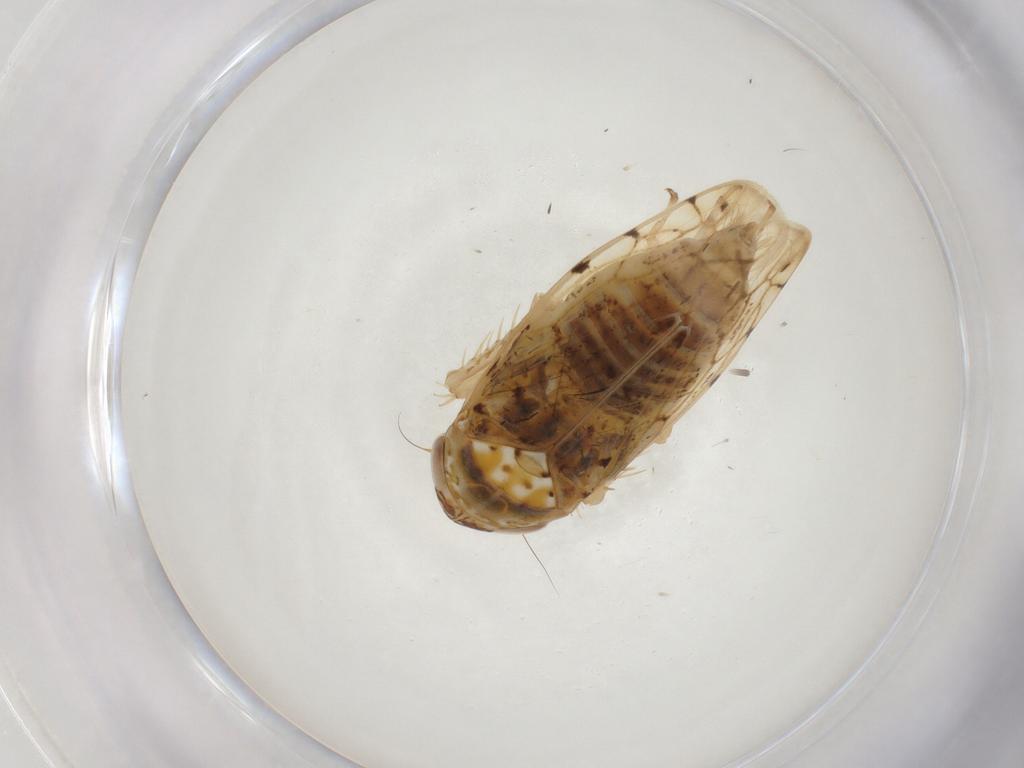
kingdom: Animalia
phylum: Arthropoda
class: Insecta
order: Hemiptera
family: Cicadellidae
